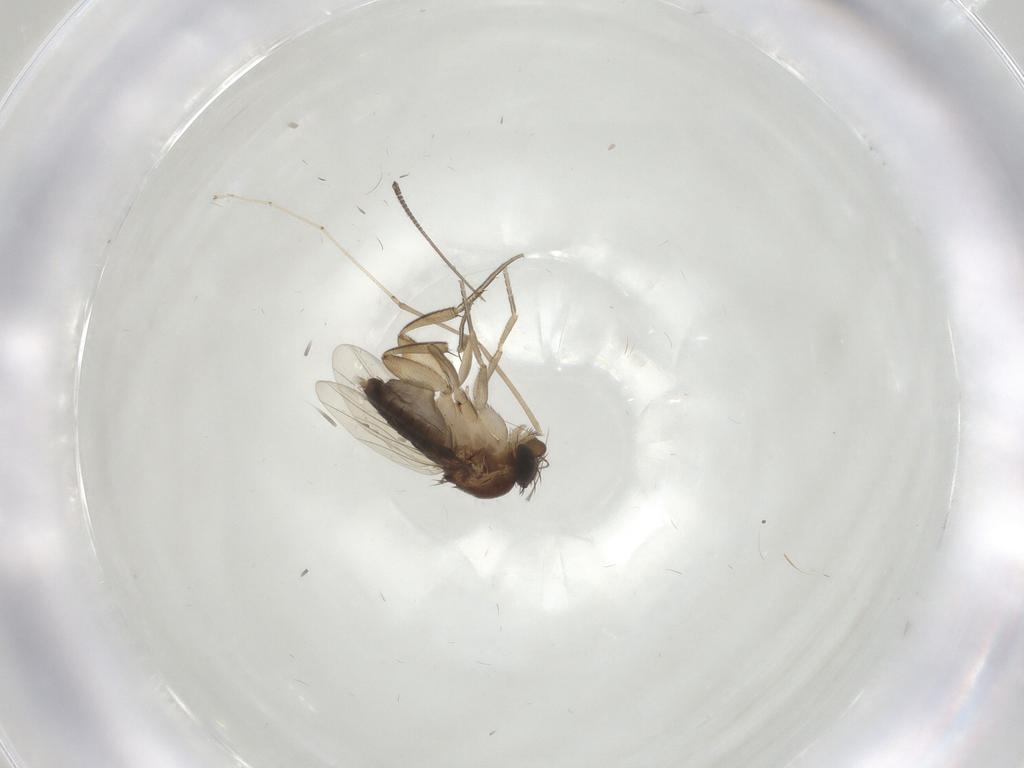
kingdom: Animalia
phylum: Arthropoda
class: Insecta
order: Diptera
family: Phoridae
